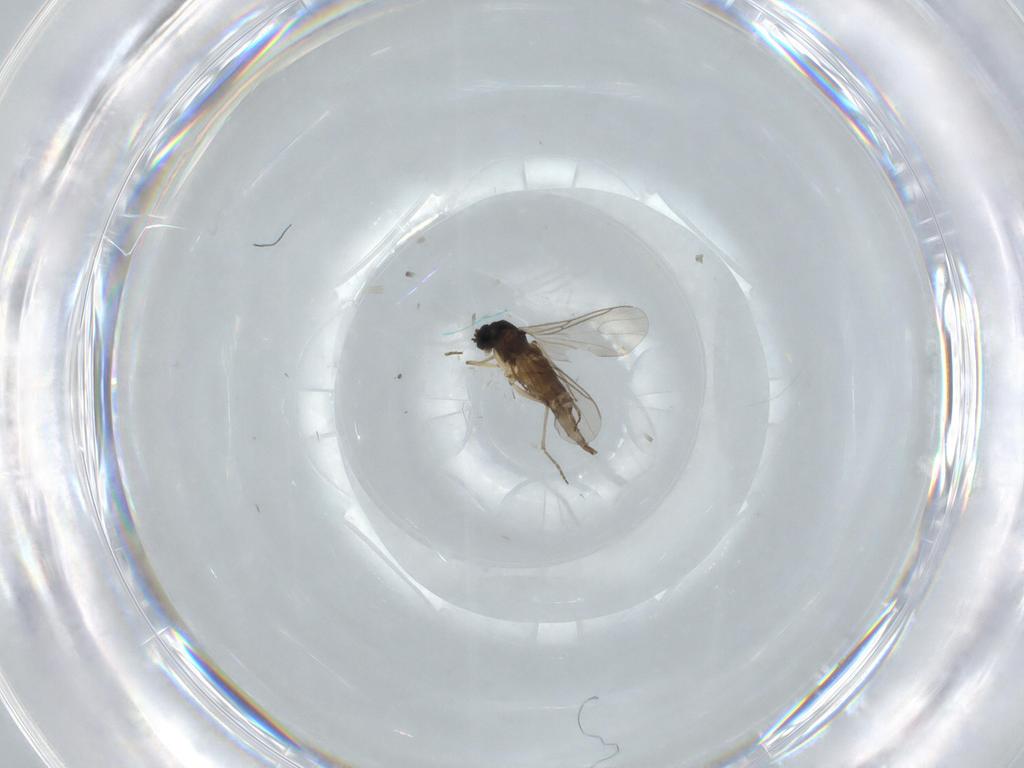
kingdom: Animalia
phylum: Arthropoda
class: Insecta
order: Diptera
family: Sciaridae
